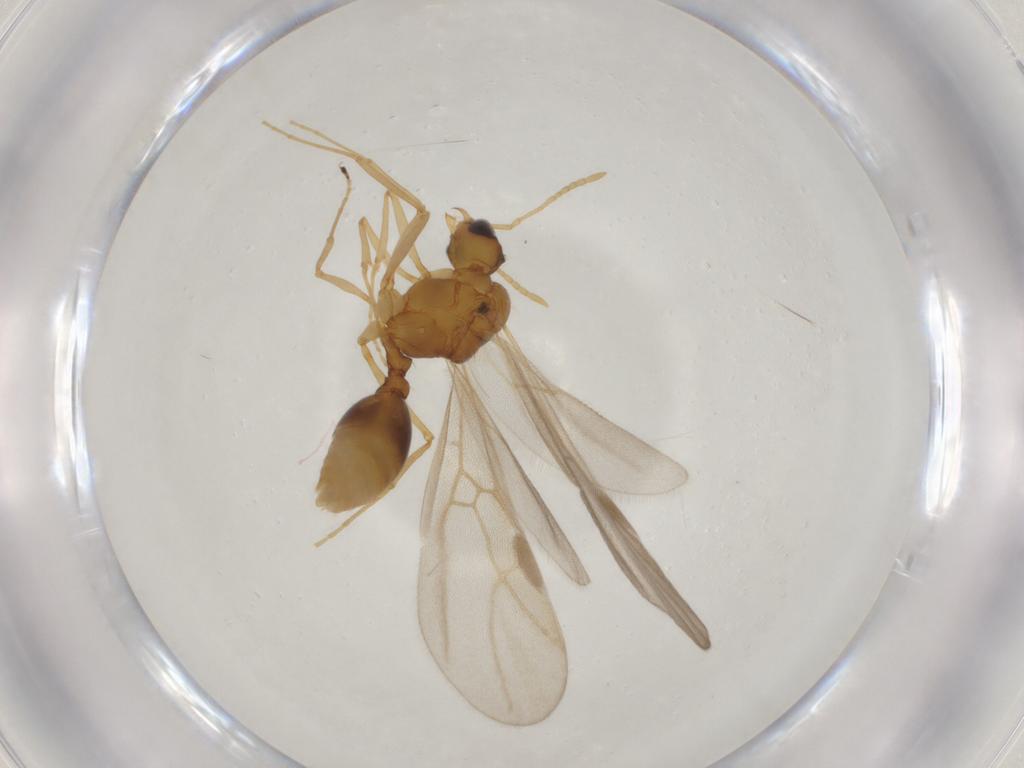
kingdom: Animalia
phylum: Arthropoda
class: Insecta
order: Hymenoptera
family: Formicidae
